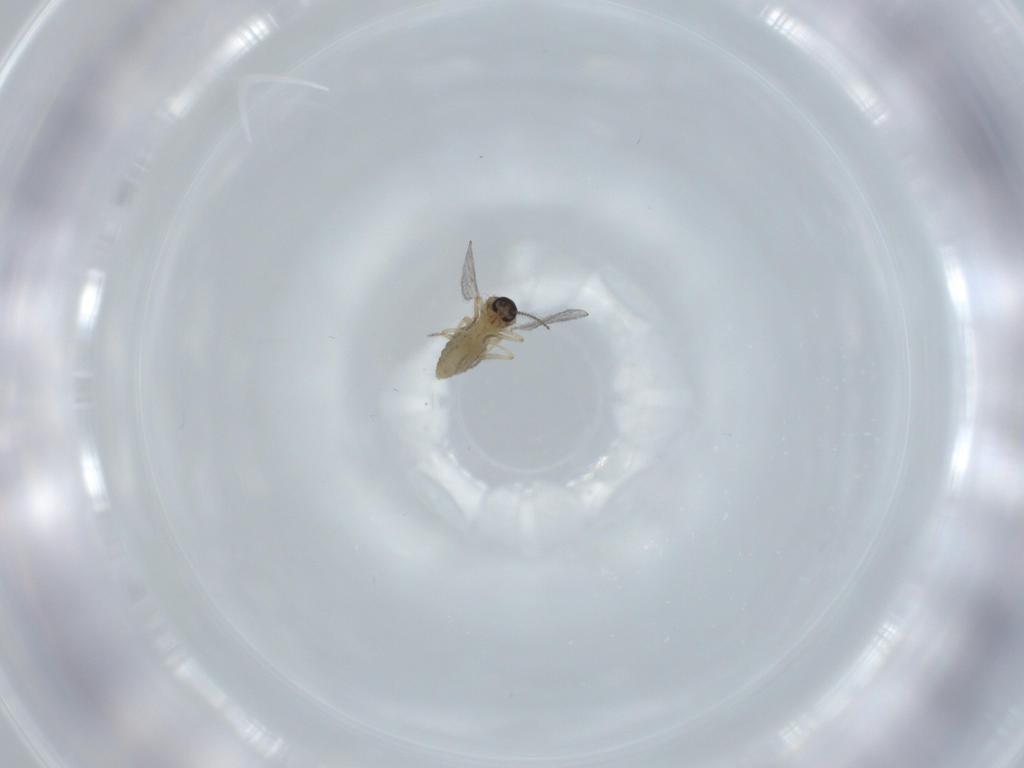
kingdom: Animalia
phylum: Arthropoda
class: Insecta
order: Diptera
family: Ceratopogonidae
